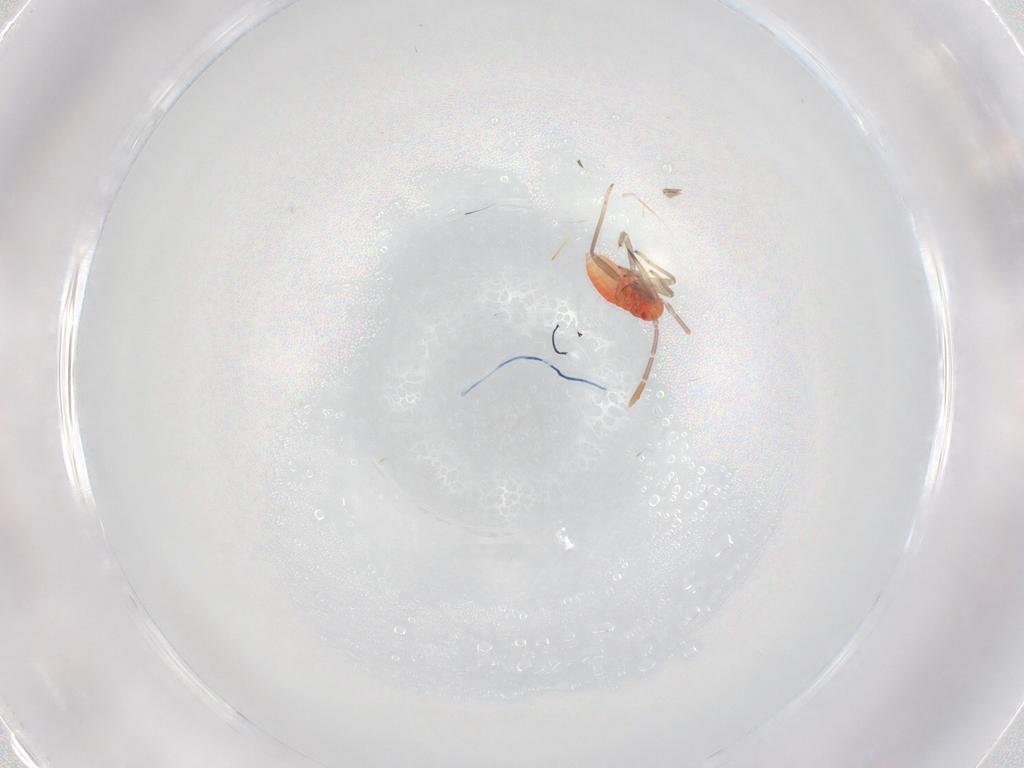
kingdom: Animalia
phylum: Arthropoda
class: Insecta
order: Hemiptera
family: Miridae
